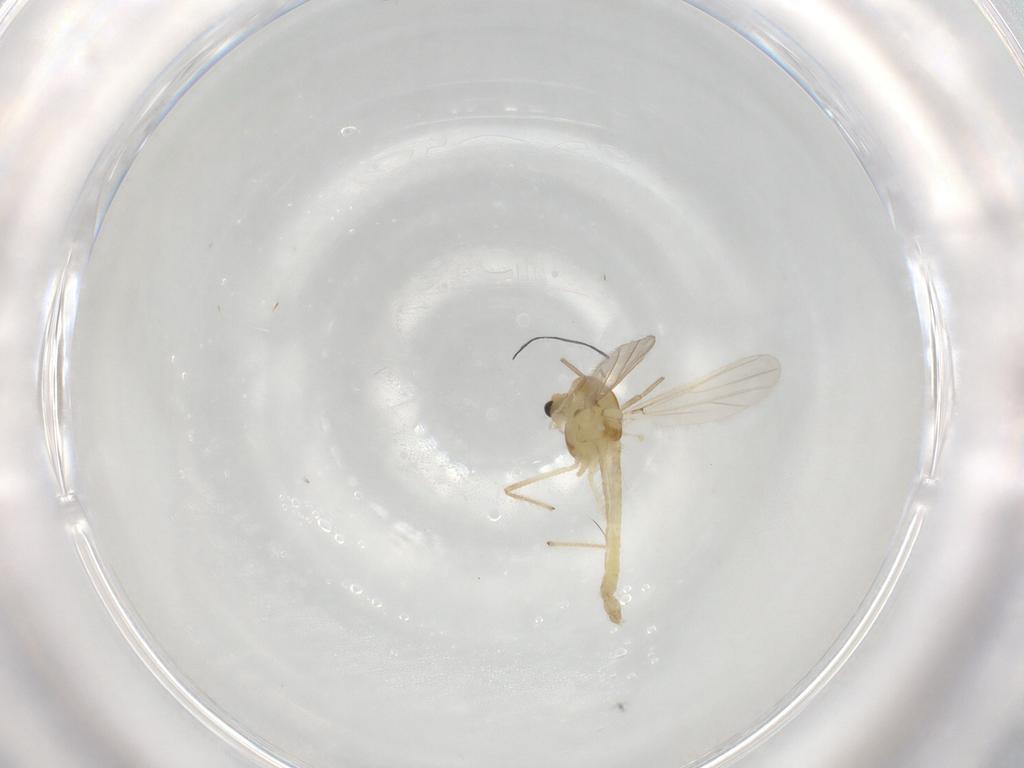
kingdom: Animalia
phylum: Arthropoda
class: Insecta
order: Diptera
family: Chironomidae
